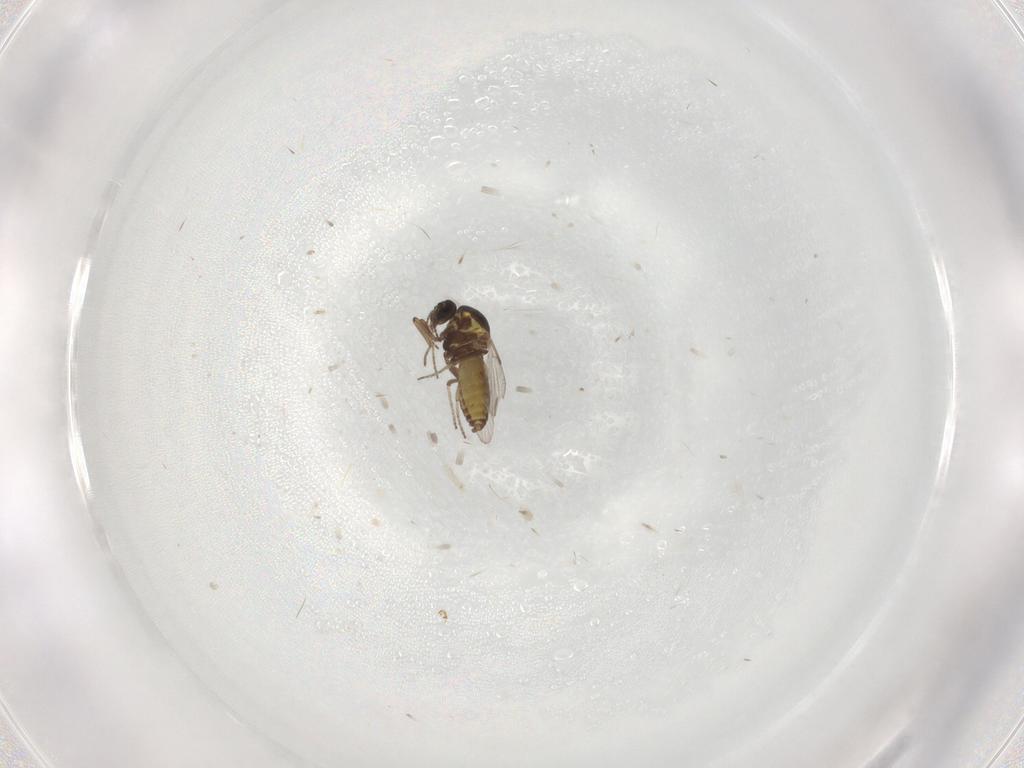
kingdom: Animalia
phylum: Arthropoda
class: Insecta
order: Diptera
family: Ceratopogonidae
